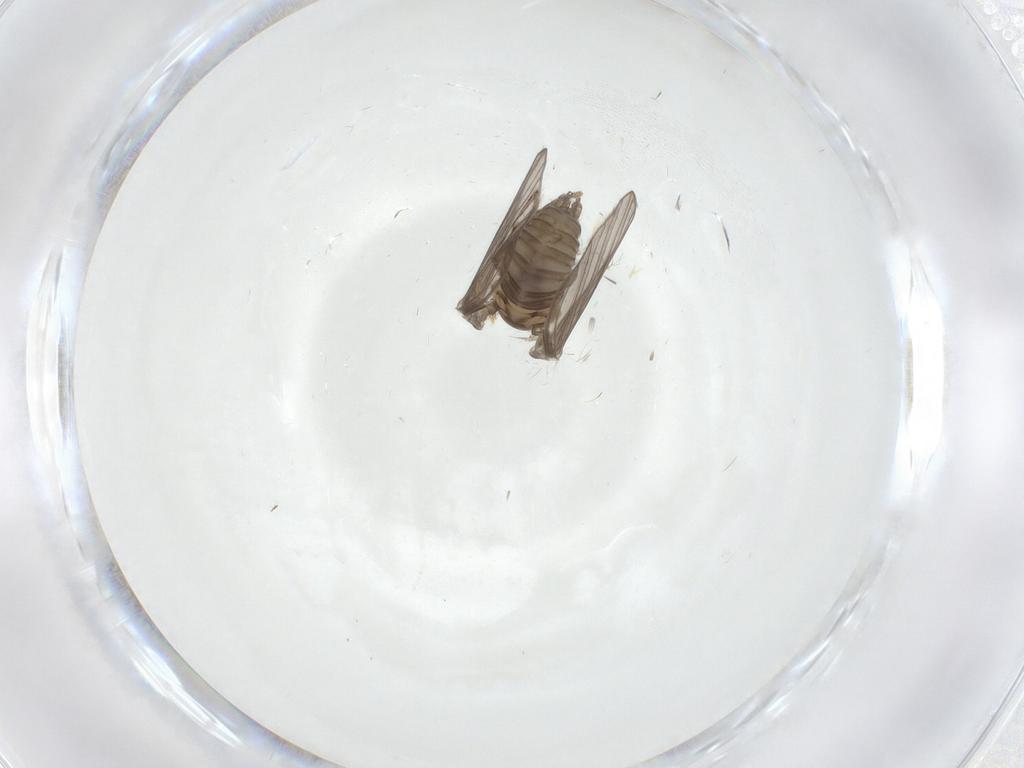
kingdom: Animalia
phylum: Arthropoda
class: Insecta
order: Diptera
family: Psychodidae
